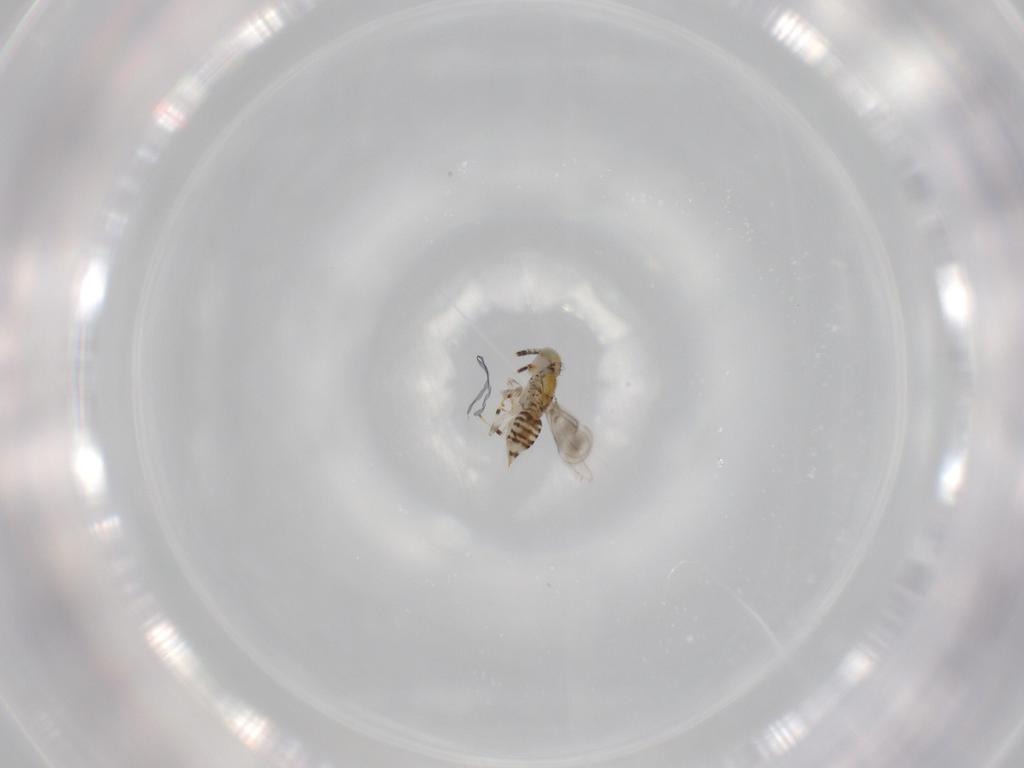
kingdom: Animalia
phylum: Arthropoda
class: Insecta
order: Hymenoptera
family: Aphelinidae
